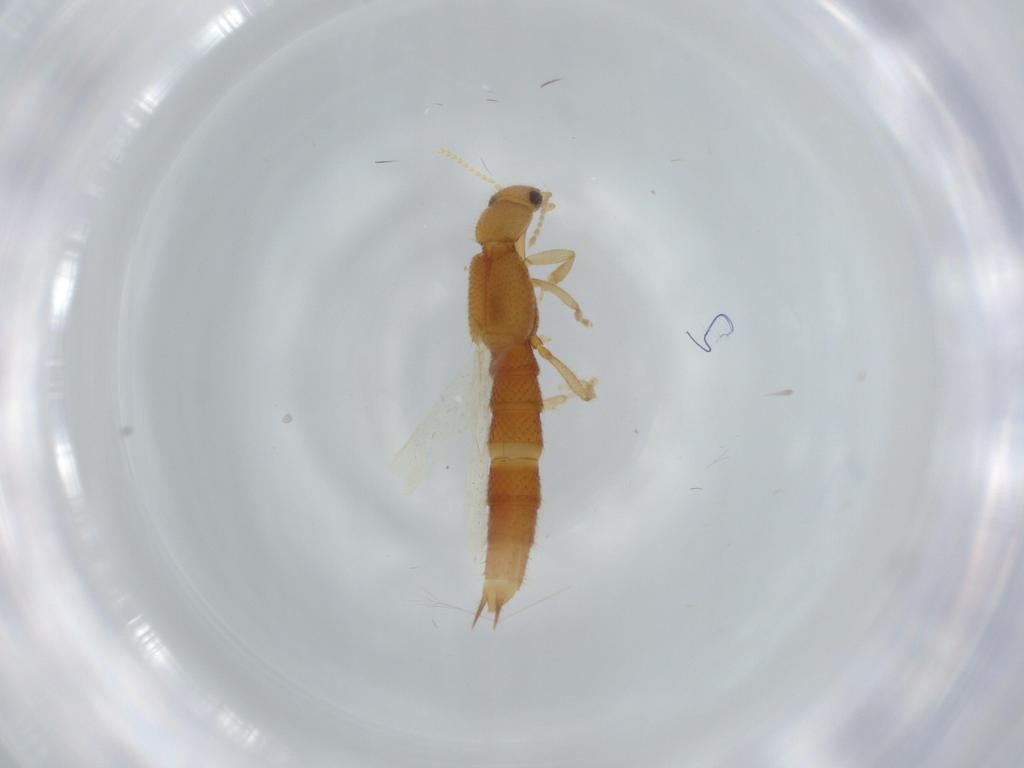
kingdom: Animalia
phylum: Arthropoda
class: Insecta
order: Coleoptera
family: Staphylinidae
